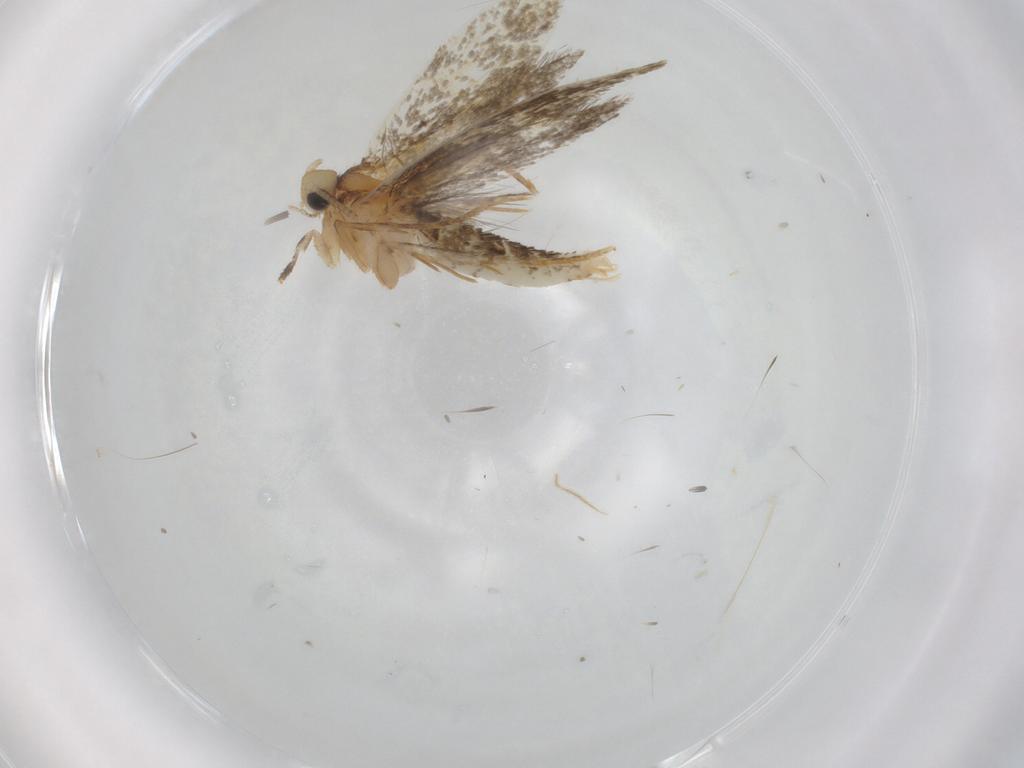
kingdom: Animalia
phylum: Arthropoda
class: Insecta
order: Lepidoptera
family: Tineidae
